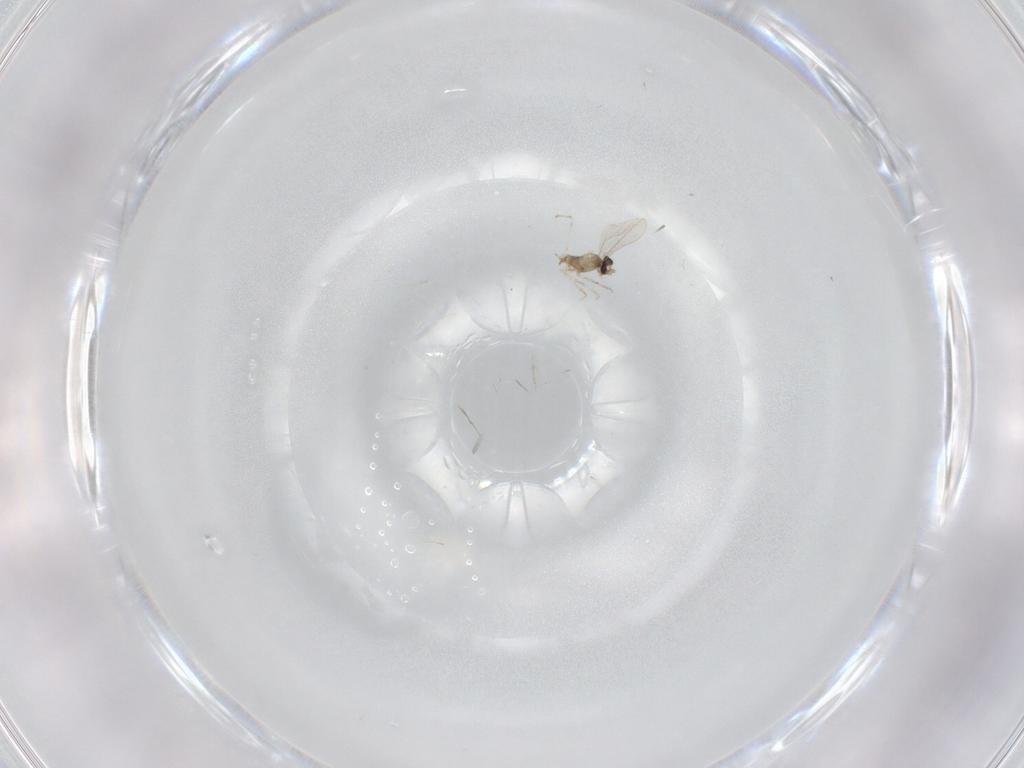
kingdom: Animalia
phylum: Arthropoda
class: Insecta
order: Diptera
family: Cecidomyiidae
